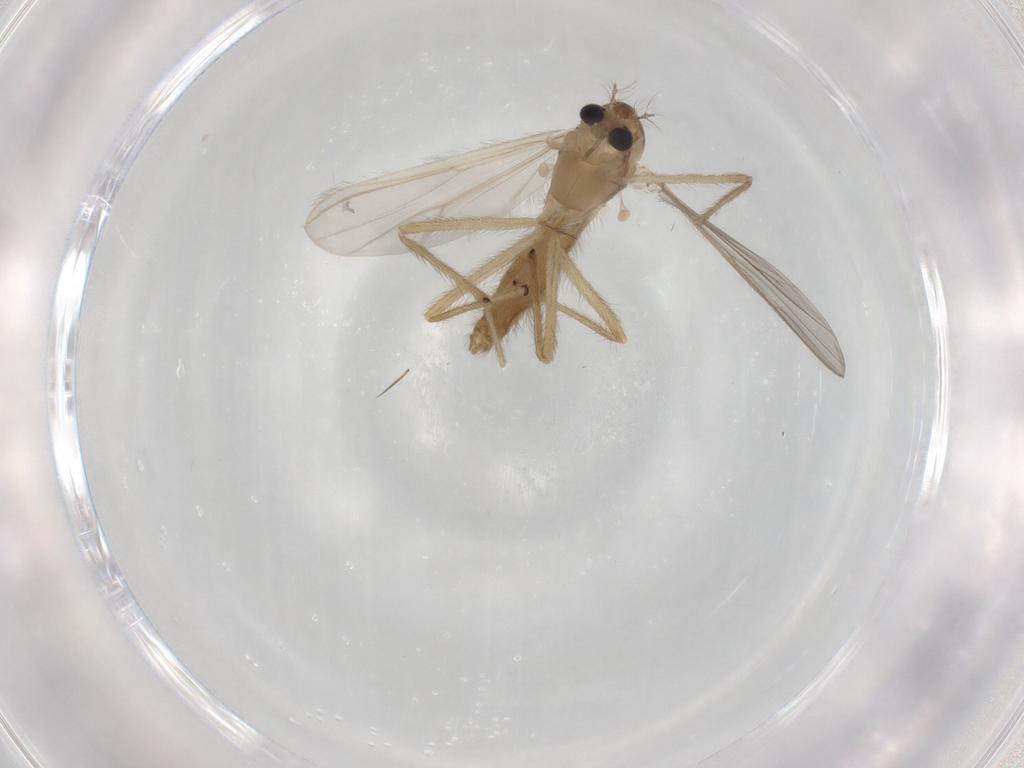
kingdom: Animalia
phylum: Arthropoda
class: Insecta
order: Diptera
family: Chironomidae
